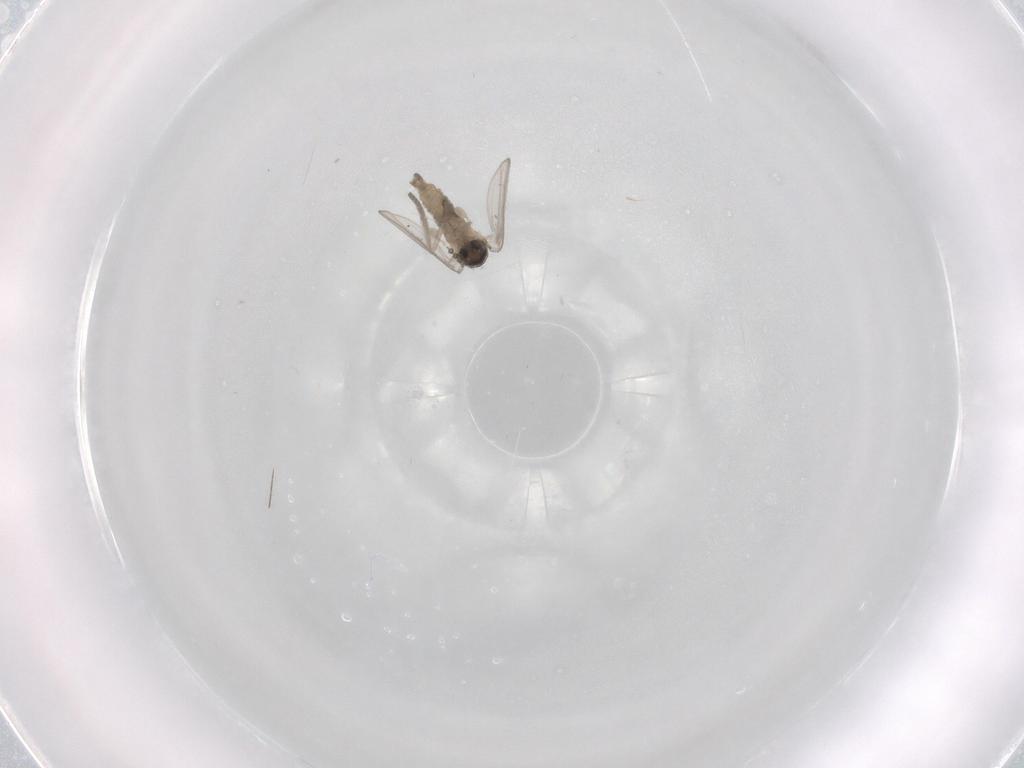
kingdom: Animalia
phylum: Arthropoda
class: Insecta
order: Diptera
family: Psychodidae
